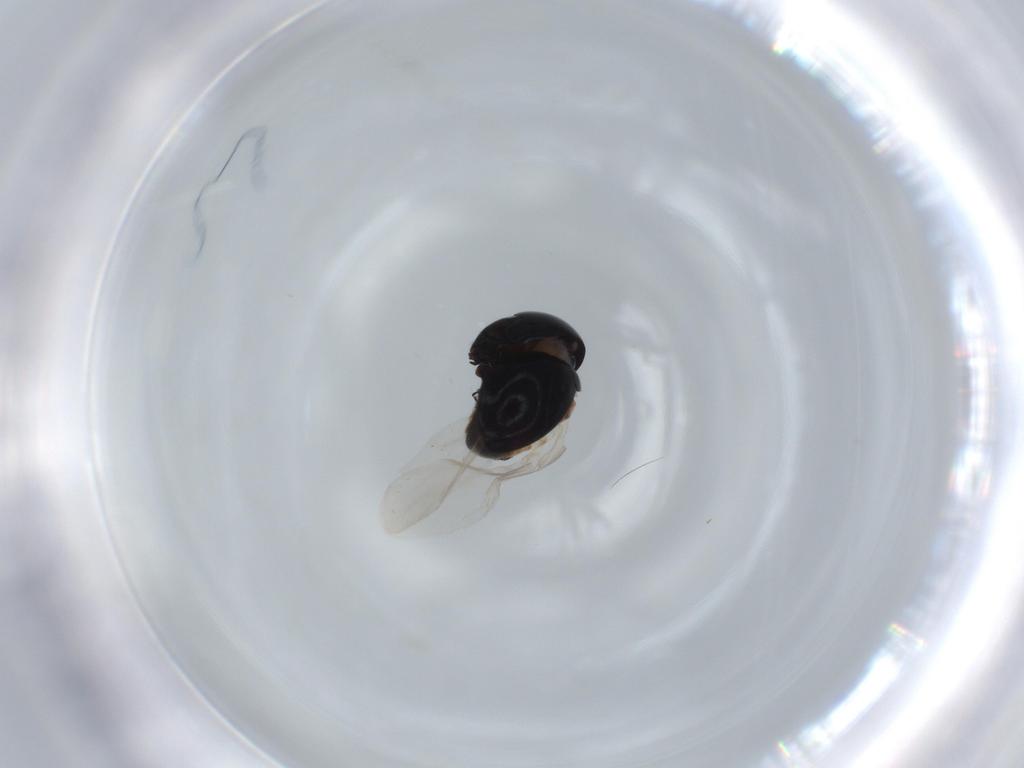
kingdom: Animalia
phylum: Arthropoda
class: Insecta
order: Coleoptera
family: Cybocephalidae
